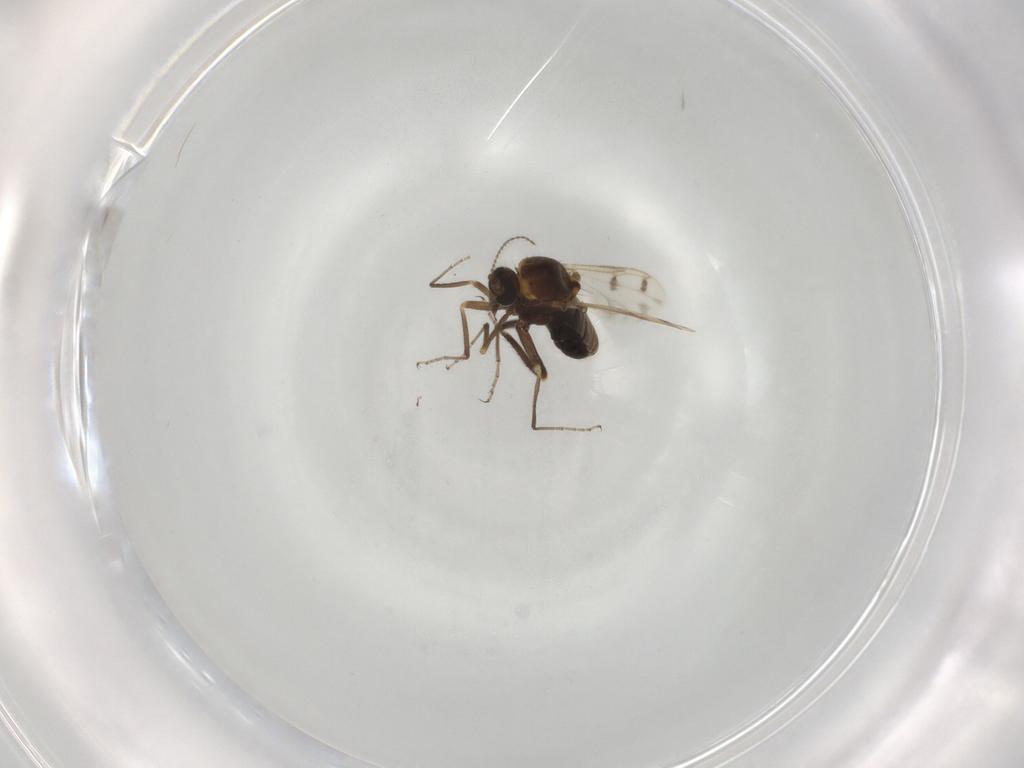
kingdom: Animalia
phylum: Arthropoda
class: Insecta
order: Diptera
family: Ceratopogonidae
